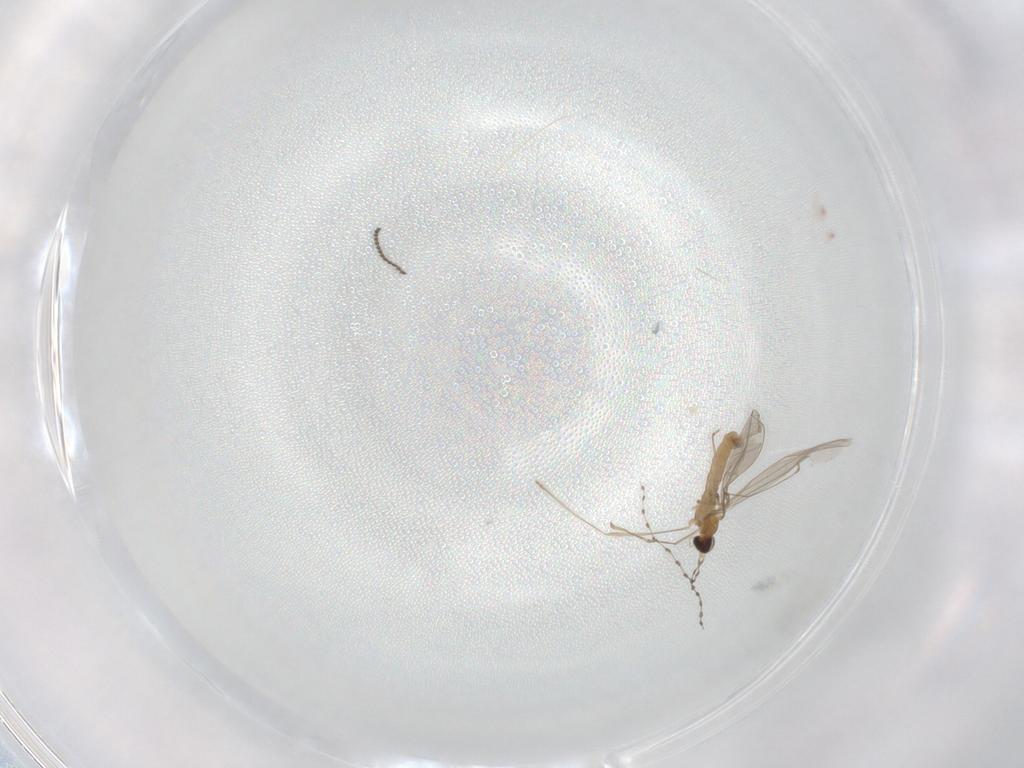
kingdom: Animalia
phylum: Arthropoda
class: Insecta
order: Diptera
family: Cecidomyiidae
